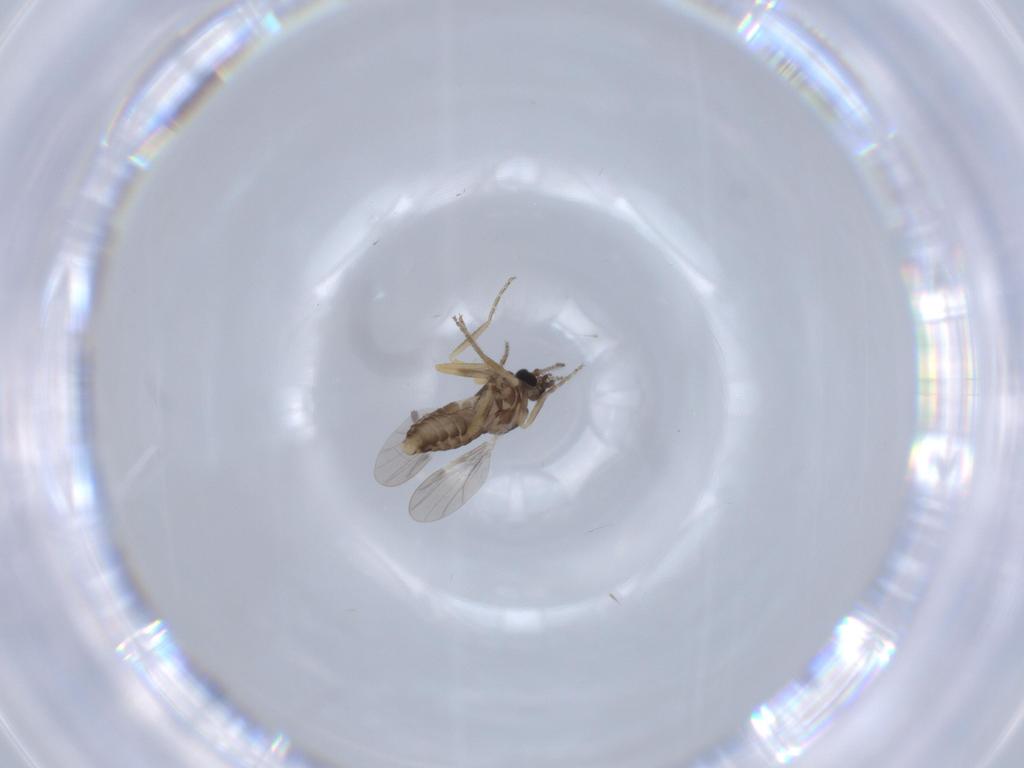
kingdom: Animalia
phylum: Arthropoda
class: Insecta
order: Diptera
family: Ceratopogonidae
